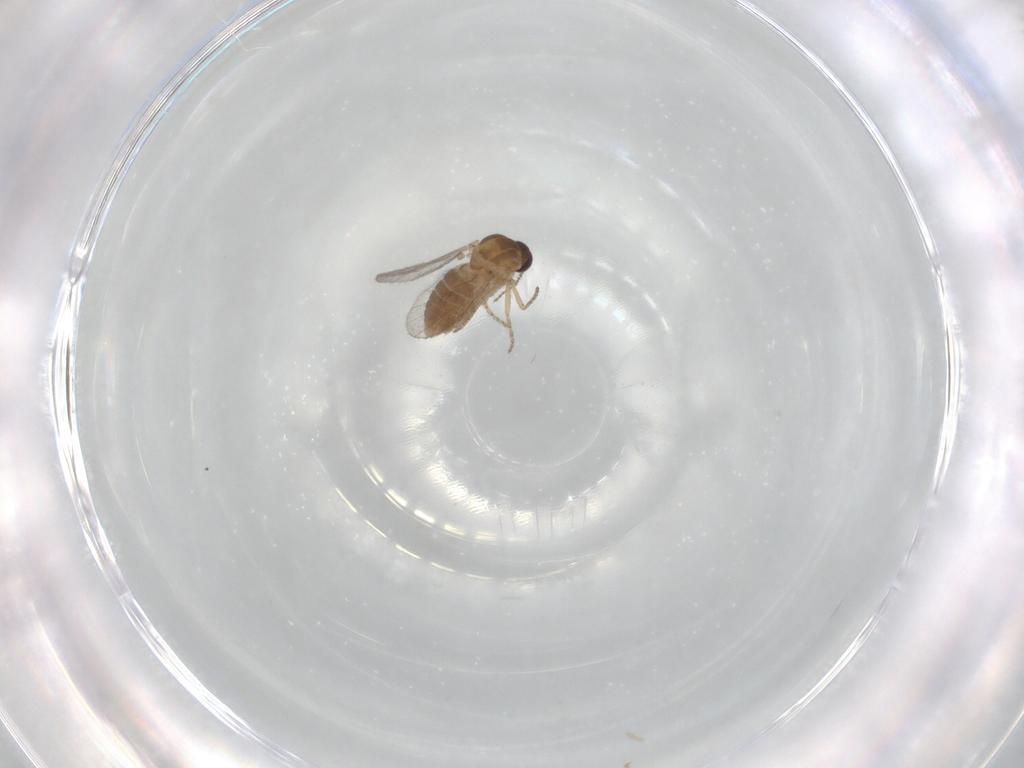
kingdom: Animalia
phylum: Arthropoda
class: Insecta
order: Diptera
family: Ceratopogonidae
